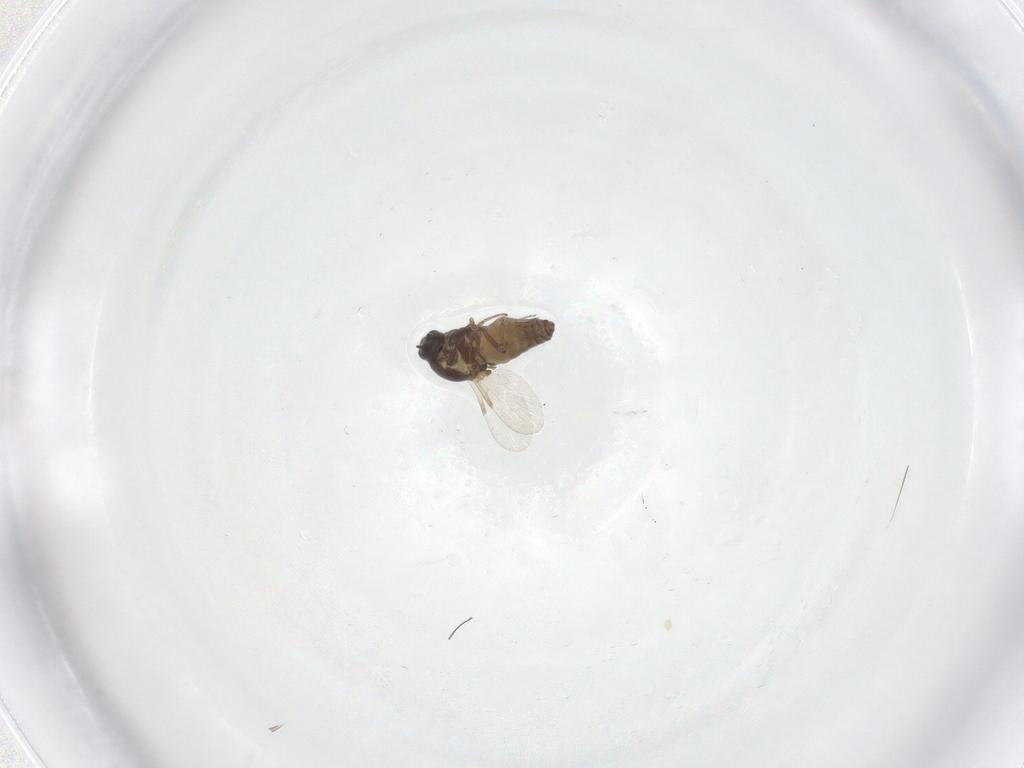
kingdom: Animalia
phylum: Arthropoda
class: Insecta
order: Diptera
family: Ceratopogonidae
